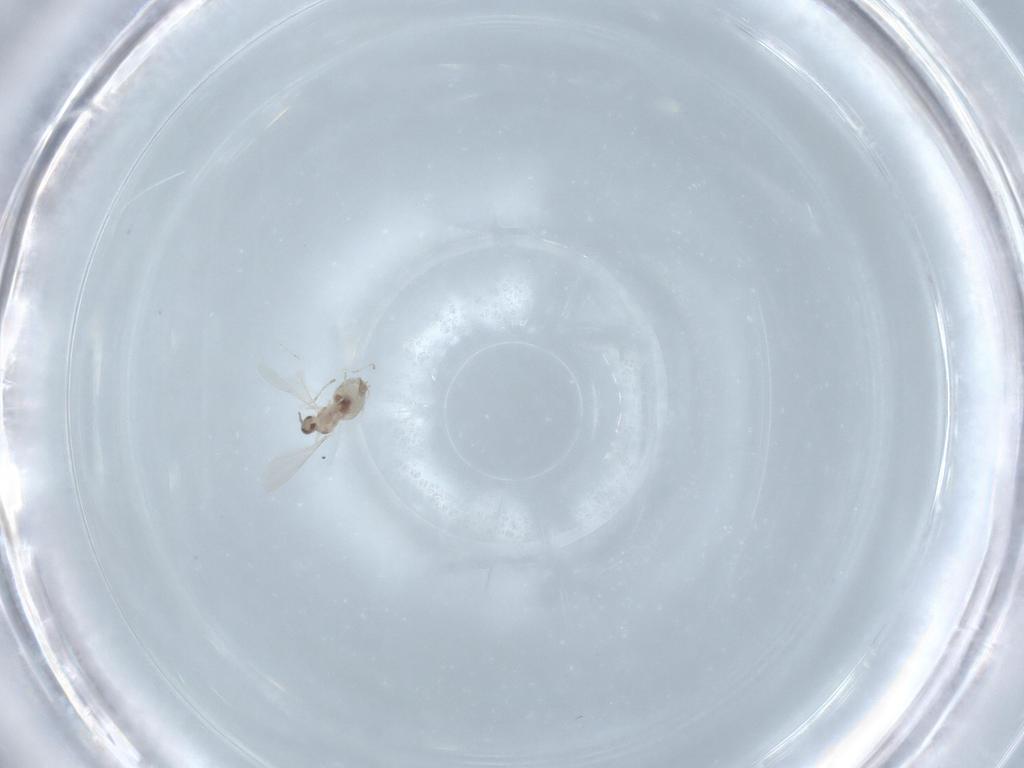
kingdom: Animalia
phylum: Arthropoda
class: Insecta
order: Diptera
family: Cecidomyiidae
